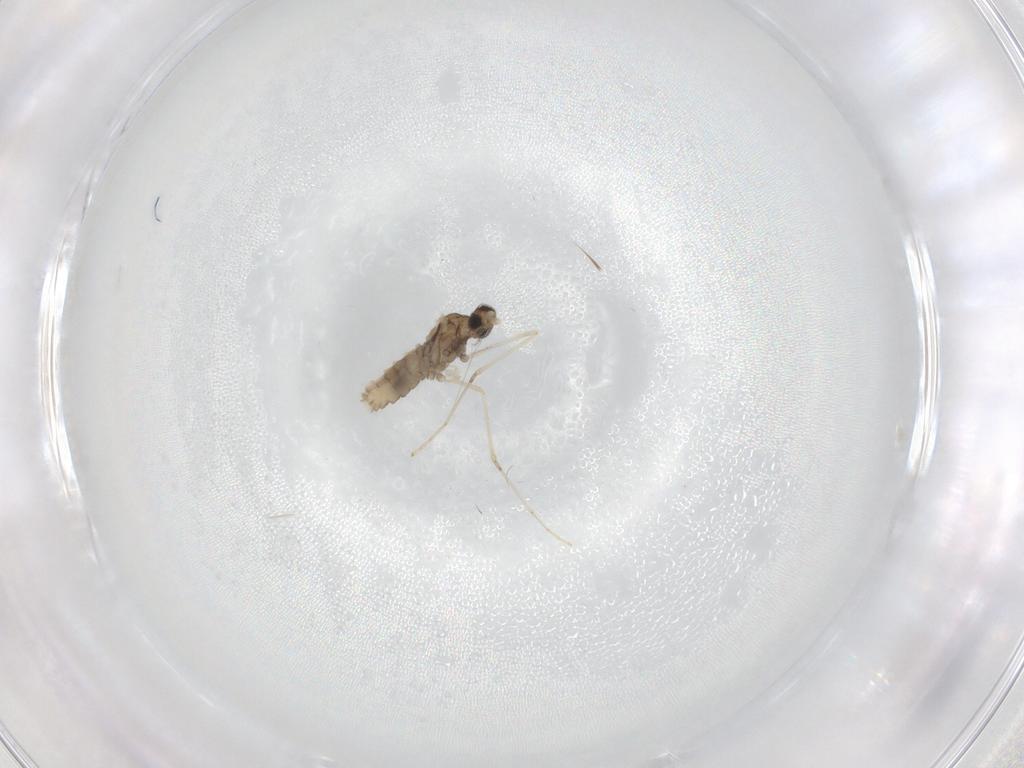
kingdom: Animalia
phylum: Arthropoda
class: Insecta
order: Diptera
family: Cecidomyiidae
